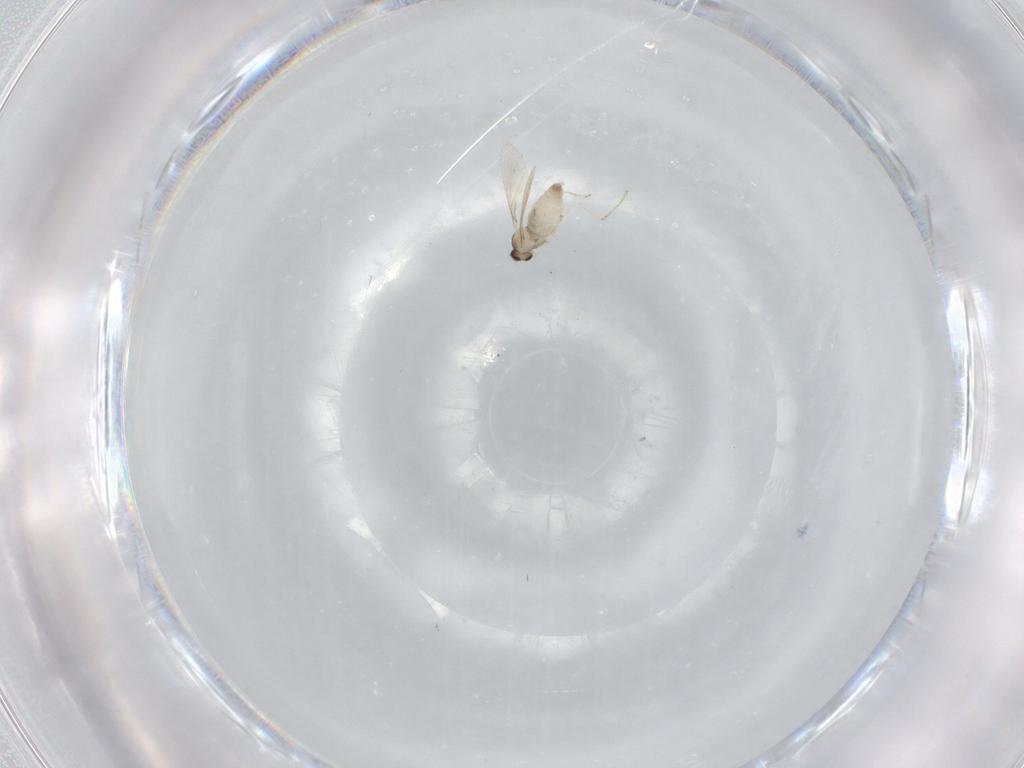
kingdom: Animalia
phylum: Arthropoda
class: Insecta
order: Diptera
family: Cecidomyiidae
